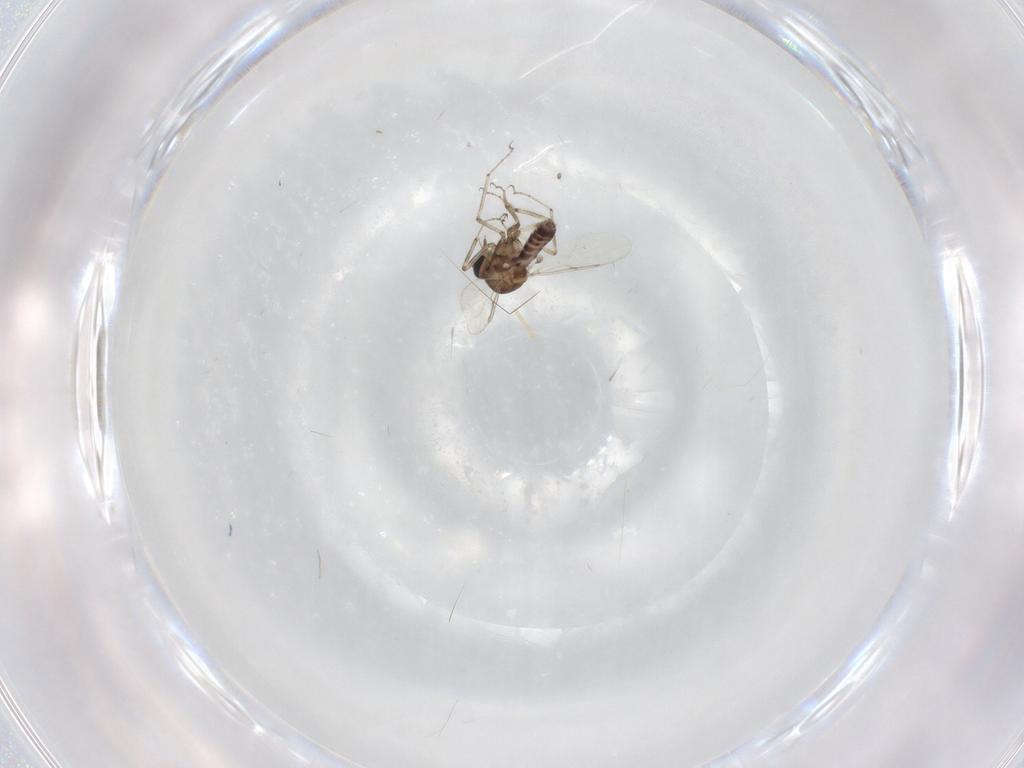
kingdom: Animalia
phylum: Arthropoda
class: Insecta
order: Diptera
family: Ceratopogonidae
